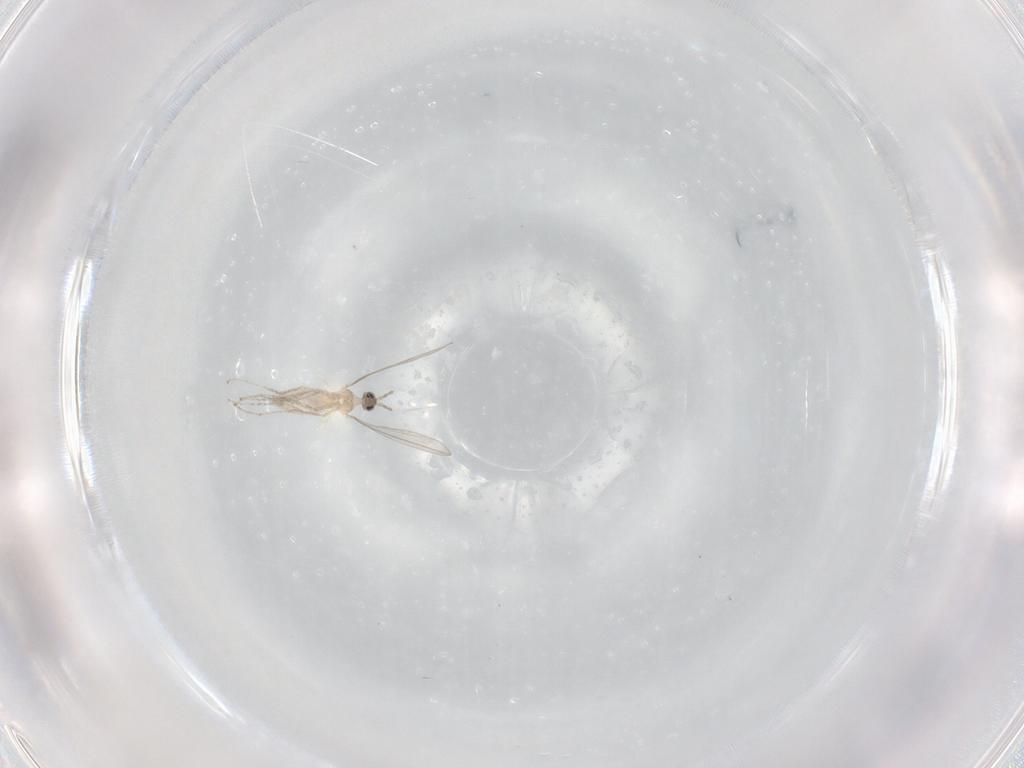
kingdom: Animalia
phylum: Arthropoda
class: Insecta
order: Diptera
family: Cecidomyiidae
